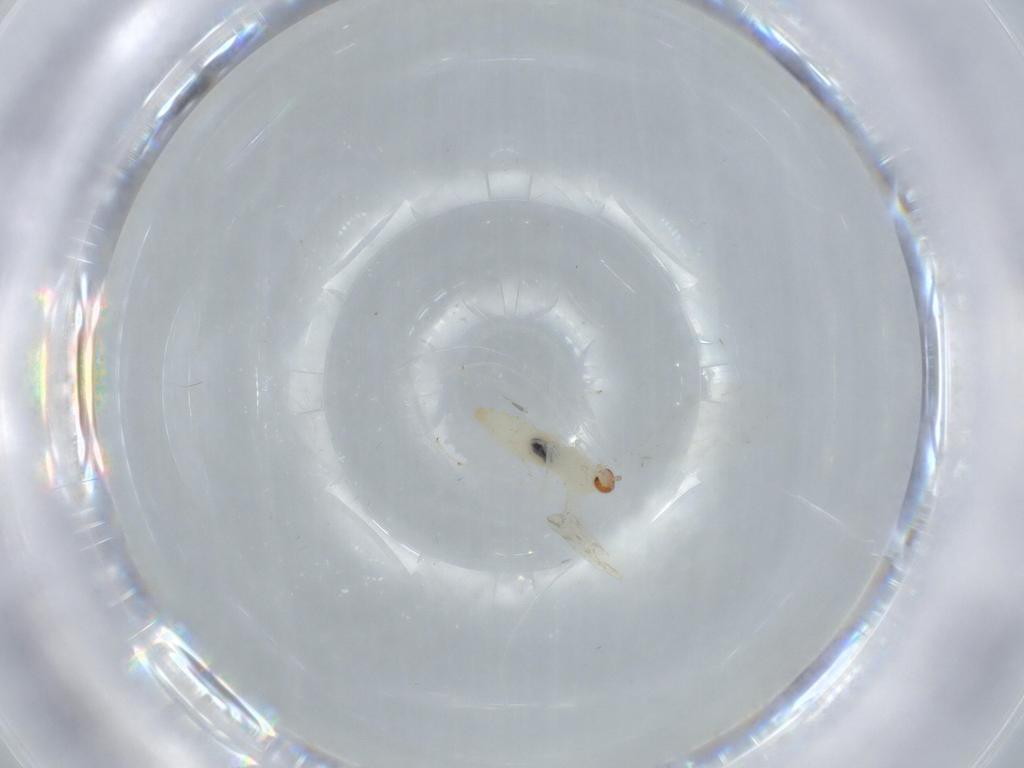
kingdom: Animalia
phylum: Arthropoda
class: Insecta
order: Diptera
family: Cecidomyiidae
